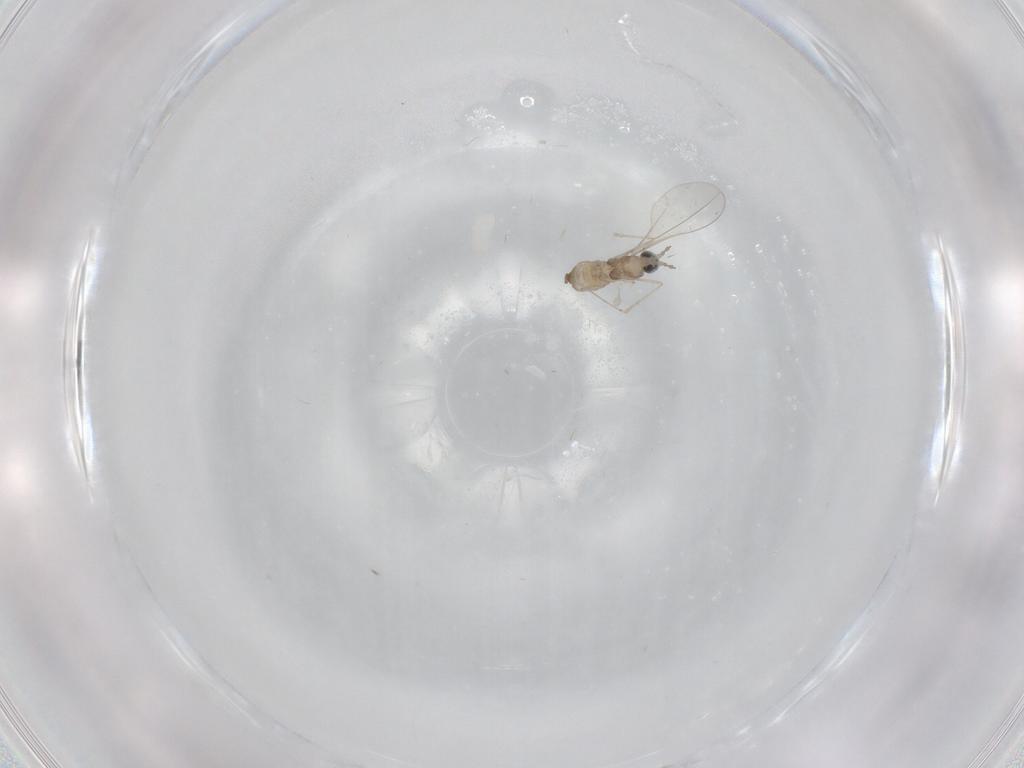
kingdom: Animalia
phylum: Arthropoda
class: Insecta
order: Diptera
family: Cecidomyiidae
